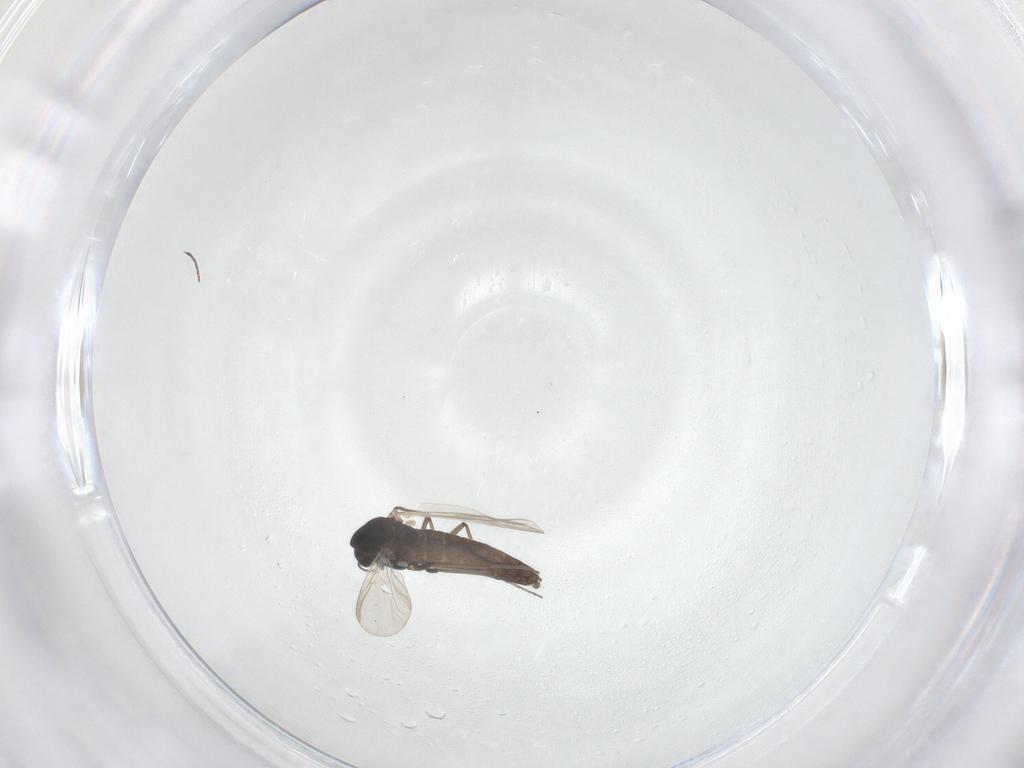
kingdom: Animalia
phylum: Arthropoda
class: Insecta
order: Diptera
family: Chironomidae
